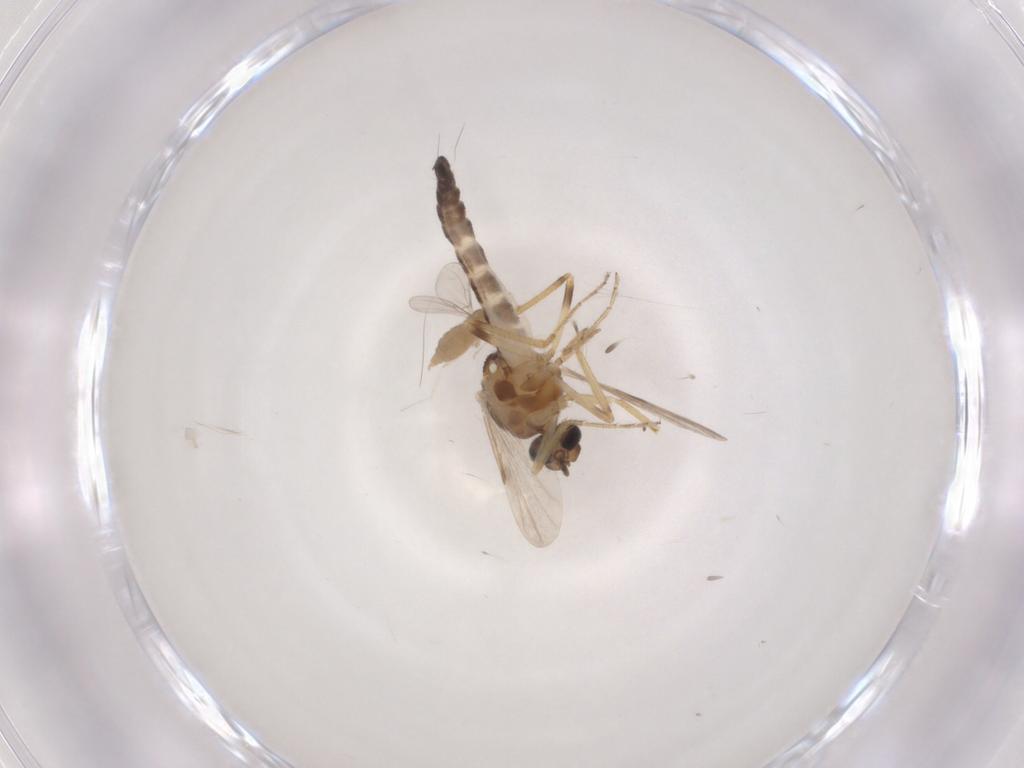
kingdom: Animalia
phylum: Arthropoda
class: Insecta
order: Diptera
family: Ceratopogonidae
